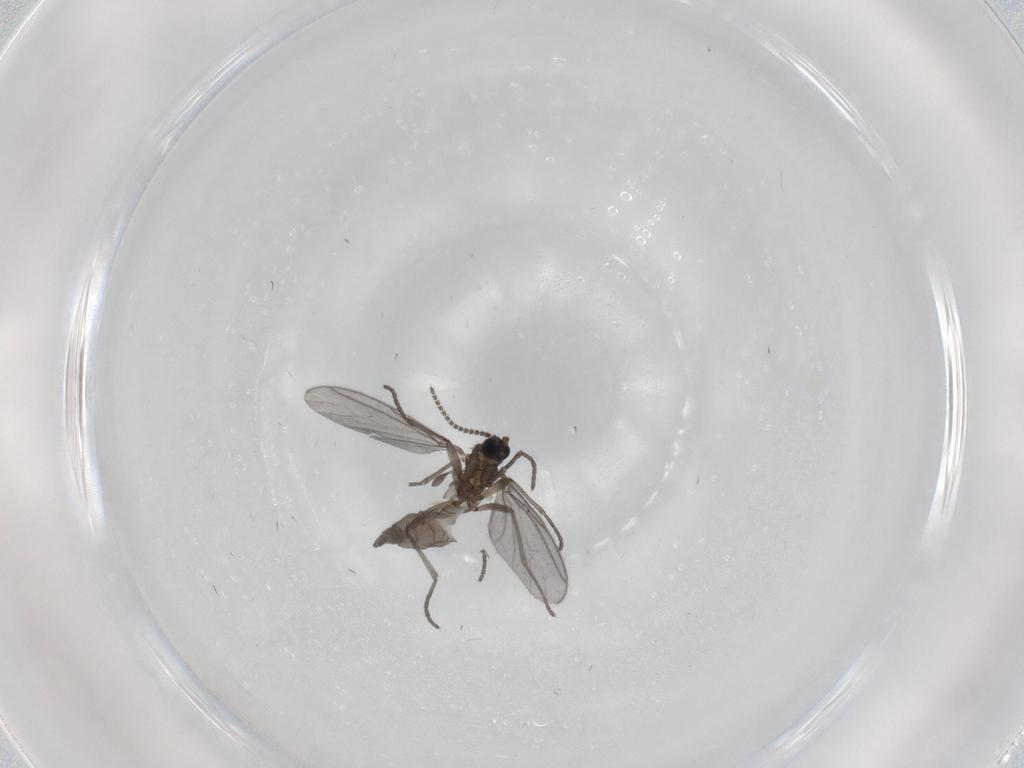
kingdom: Animalia
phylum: Arthropoda
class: Insecta
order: Diptera
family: Sciaridae
